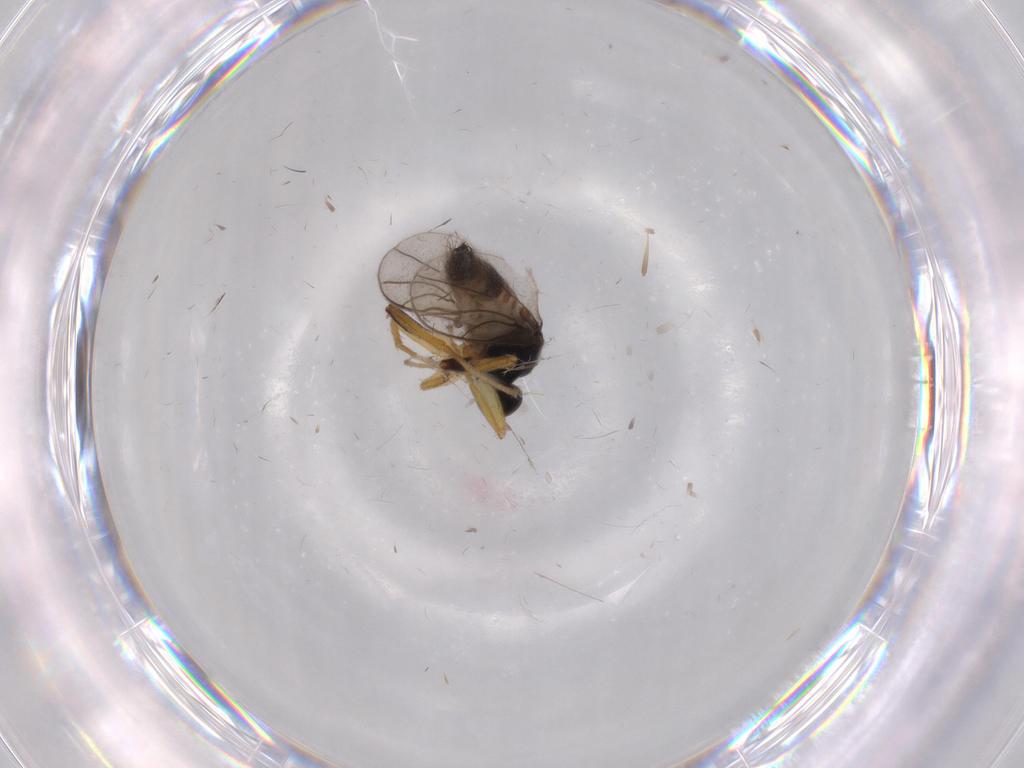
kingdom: Animalia
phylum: Arthropoda
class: Insecta
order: Diptera
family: Hybotidae
